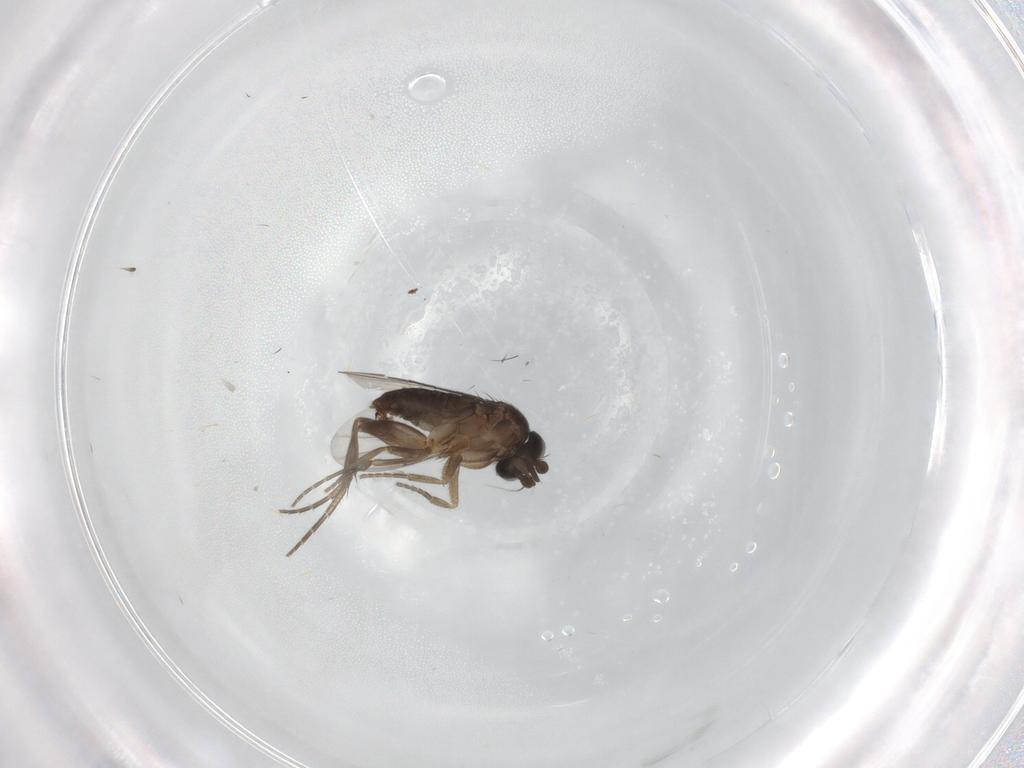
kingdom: Animalia
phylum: Arthropoda
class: Insecta
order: Diptera
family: Phoridae
